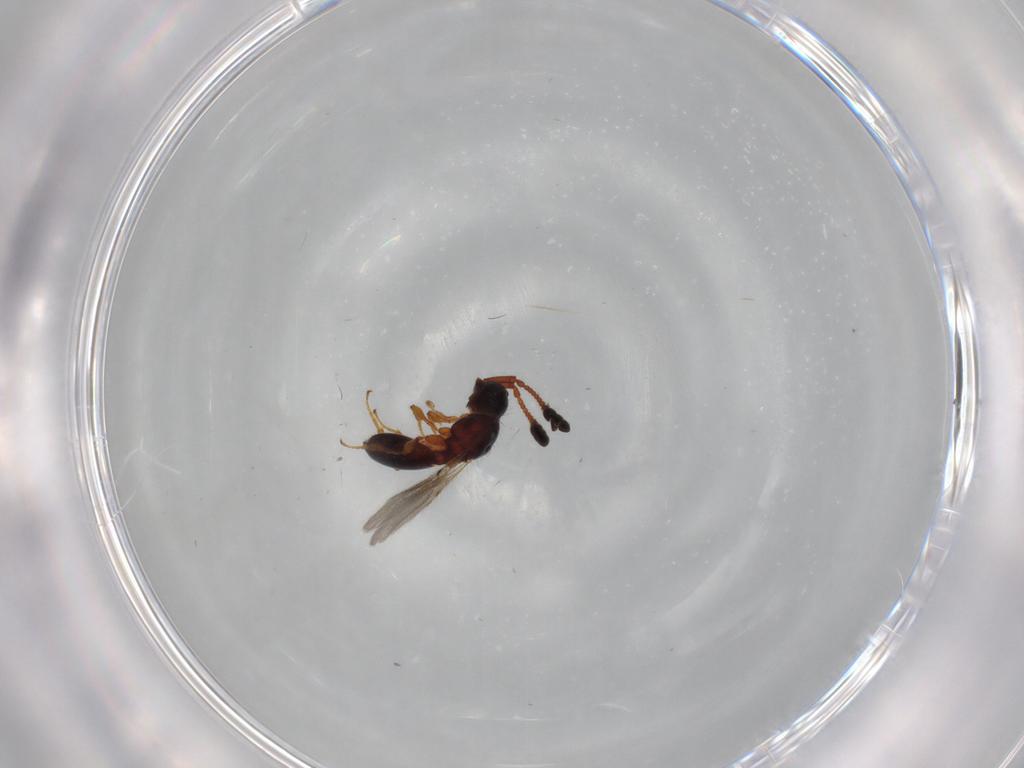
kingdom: Animalia
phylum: Arthropoda
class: Insecta
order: Hymenoptera
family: Diapriidae
